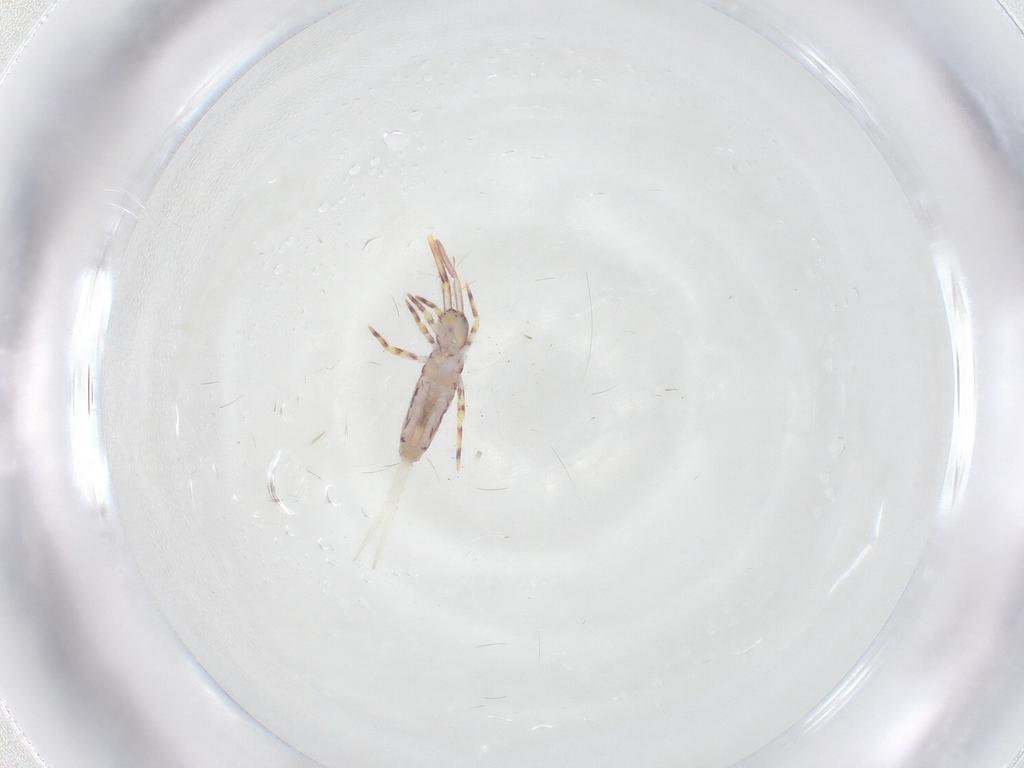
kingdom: Animalia
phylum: Arthropoda
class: Collembola
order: Entomobryomorpha
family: Entomobryidae
